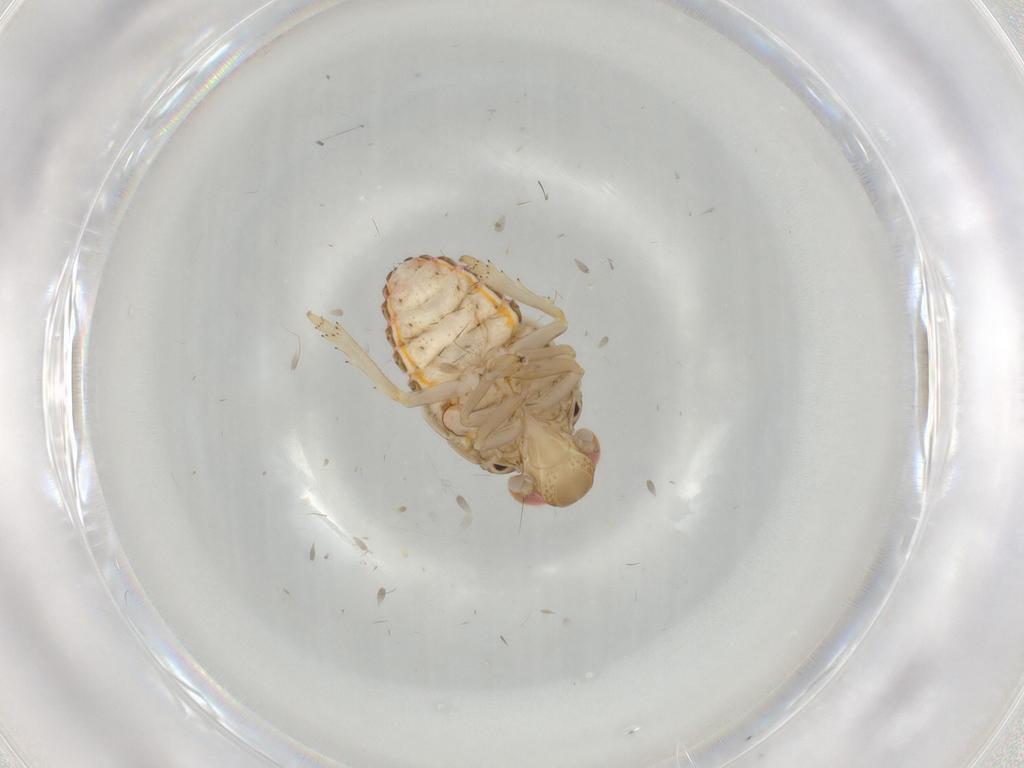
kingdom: Animalia
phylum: Arthropoda
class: Insecta
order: Hemiptera
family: Issidae
